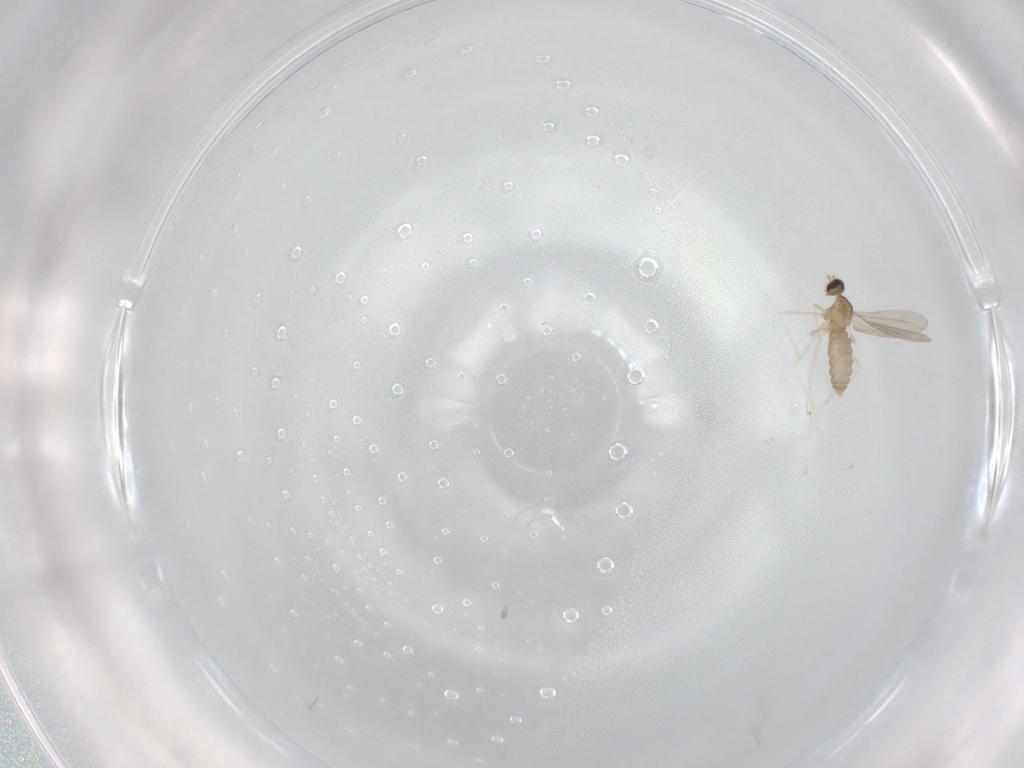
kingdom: Animalia
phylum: Arthropoda
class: Insecta
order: Diptera
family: Cecidomyiidae
